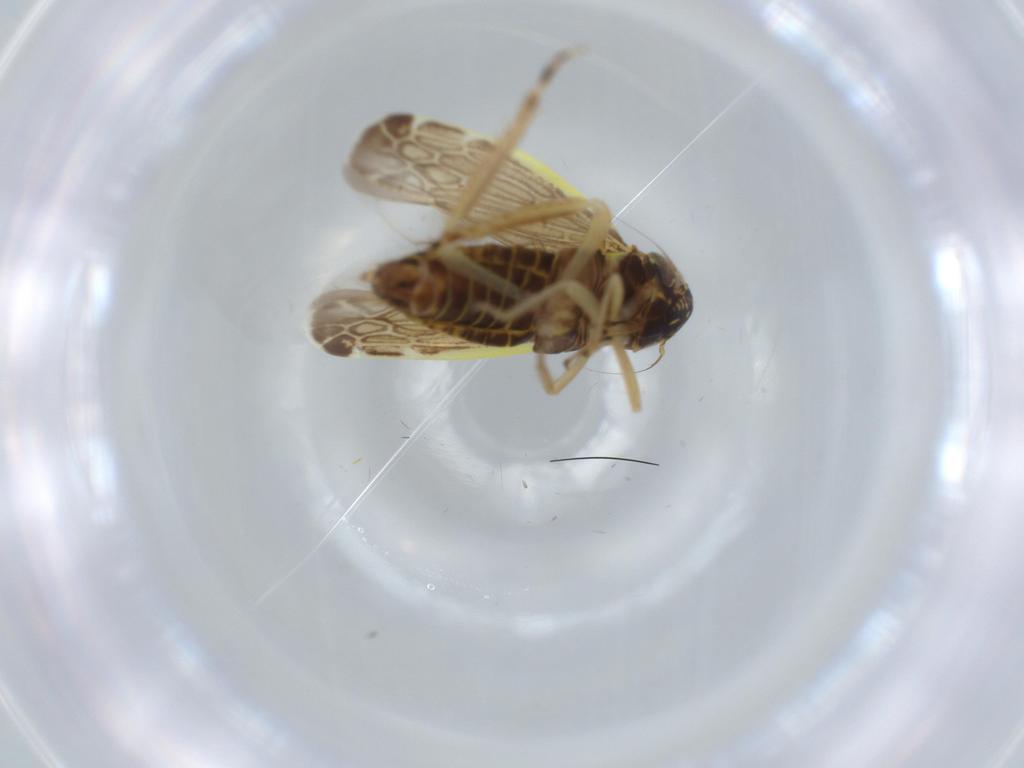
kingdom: Animalia
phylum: Arthropoda
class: Insecta
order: Hemiptera
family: Cicadellidae
